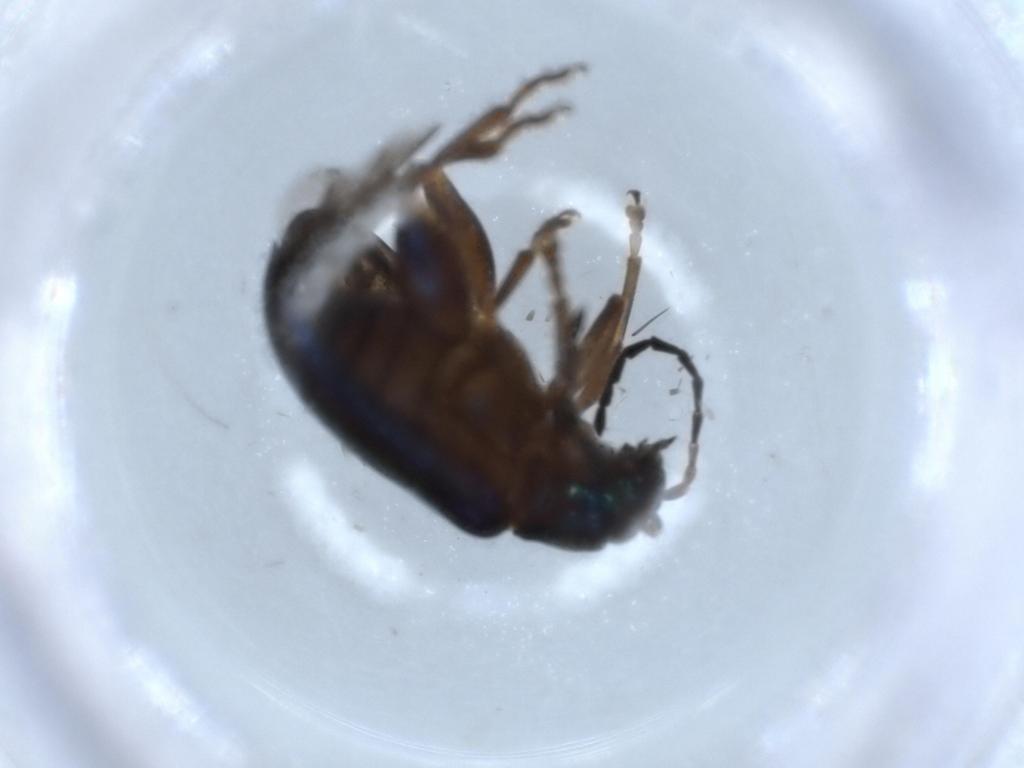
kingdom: Animalia
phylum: Arthropoda
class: Insecta
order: Coleoptera
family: Chrysomelidae
